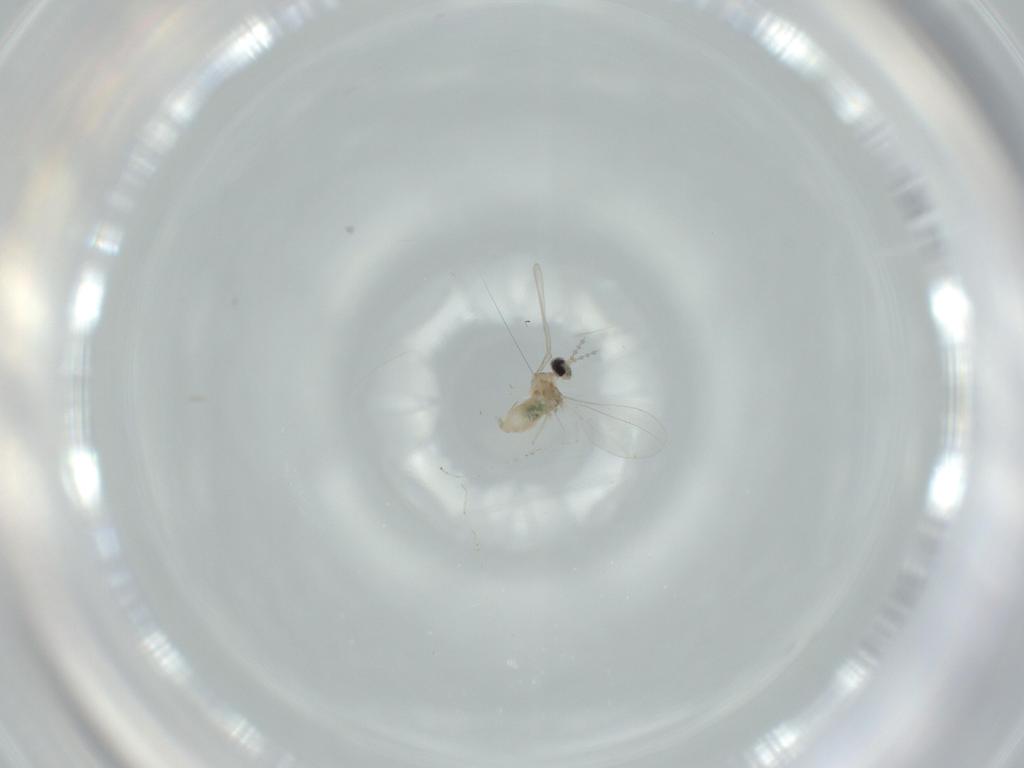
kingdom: Animalia
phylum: Arthropoda
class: Insecta
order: Diptera
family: Cecidomyiidae
